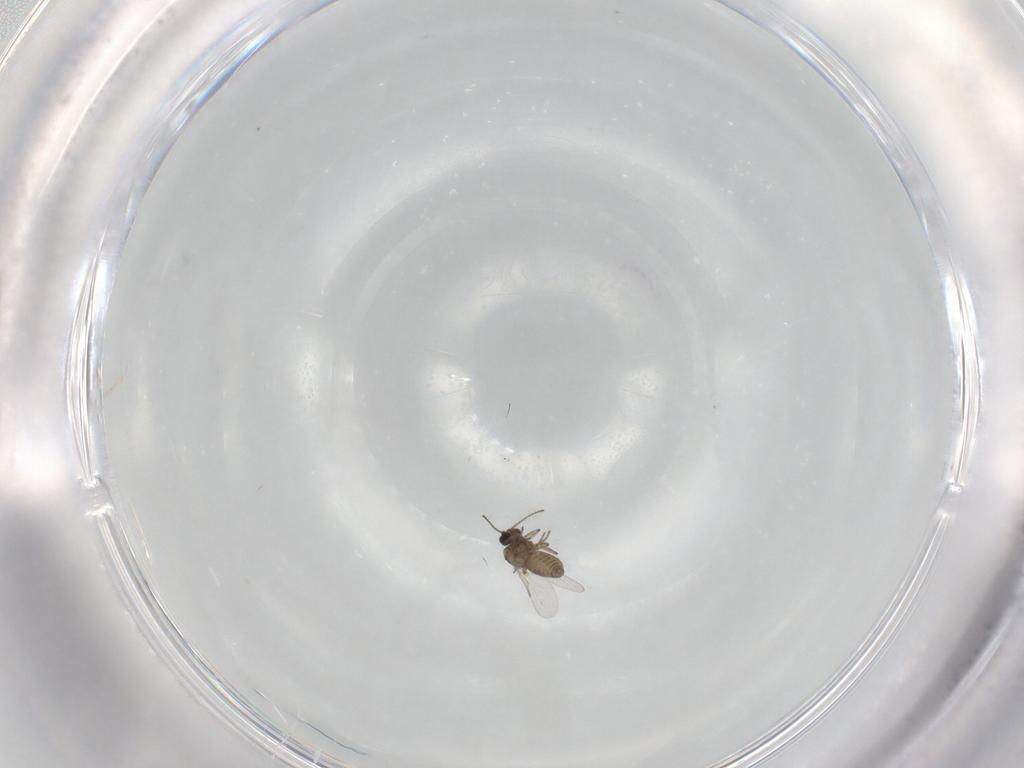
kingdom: Animalia
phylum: Arthropoda
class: Insecta
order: Diptera
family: Ceratopogonidae
